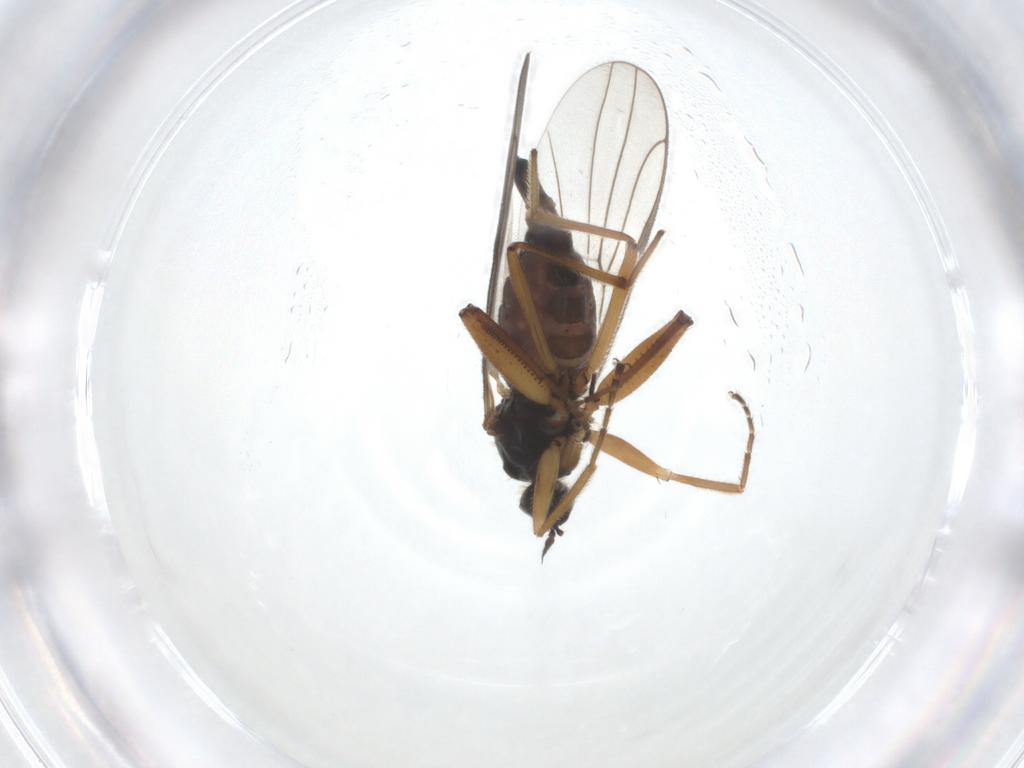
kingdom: Animalia
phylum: Arthropoda
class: Insecta
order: Diptera
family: Hybotidae
